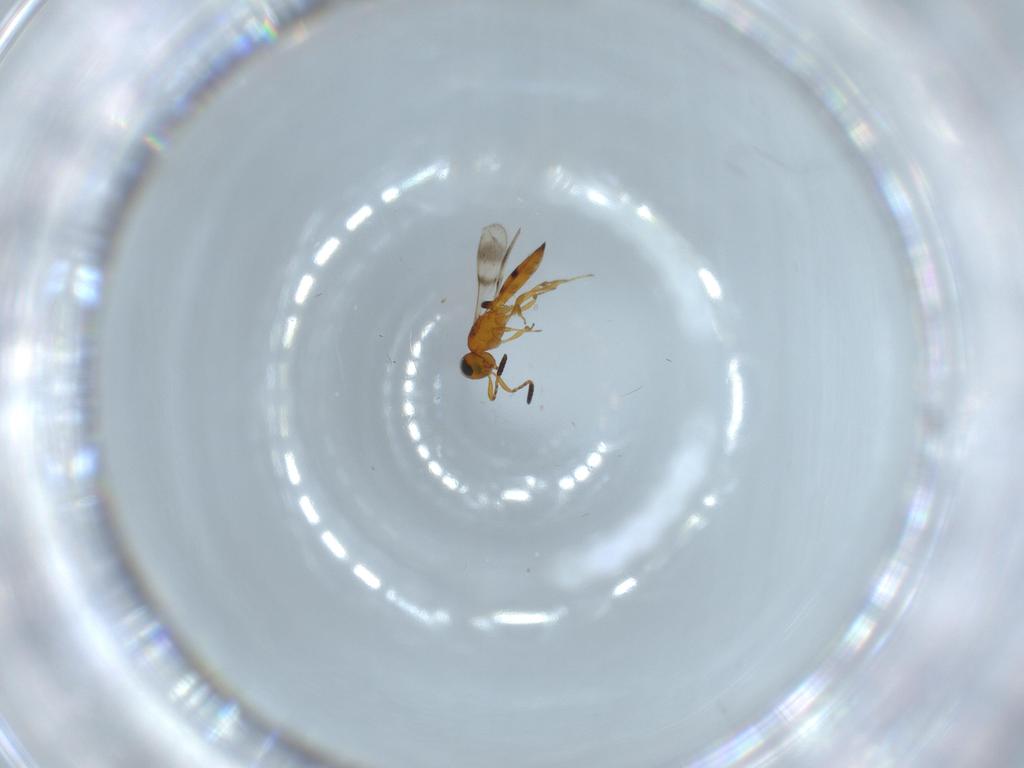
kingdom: Animalia
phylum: Arthropoda
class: Insecta
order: Hymenoptera
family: Scelionidae
